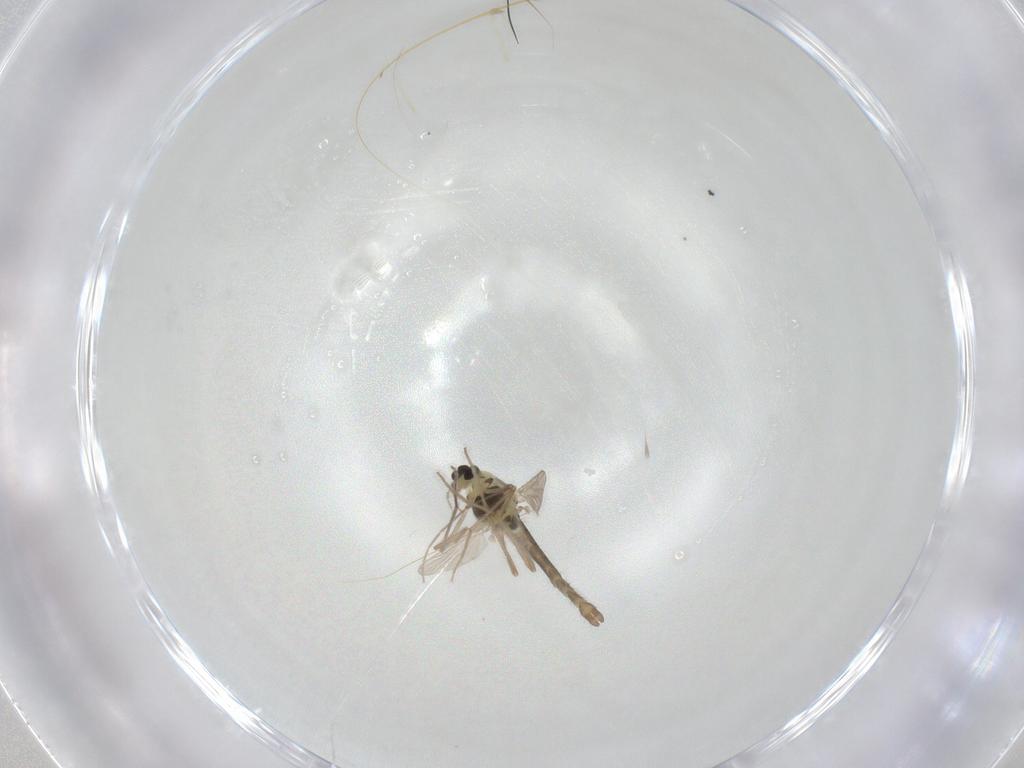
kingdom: Animalia
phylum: Arthropoda
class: Insecta
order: Diptera
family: Chironomidae
